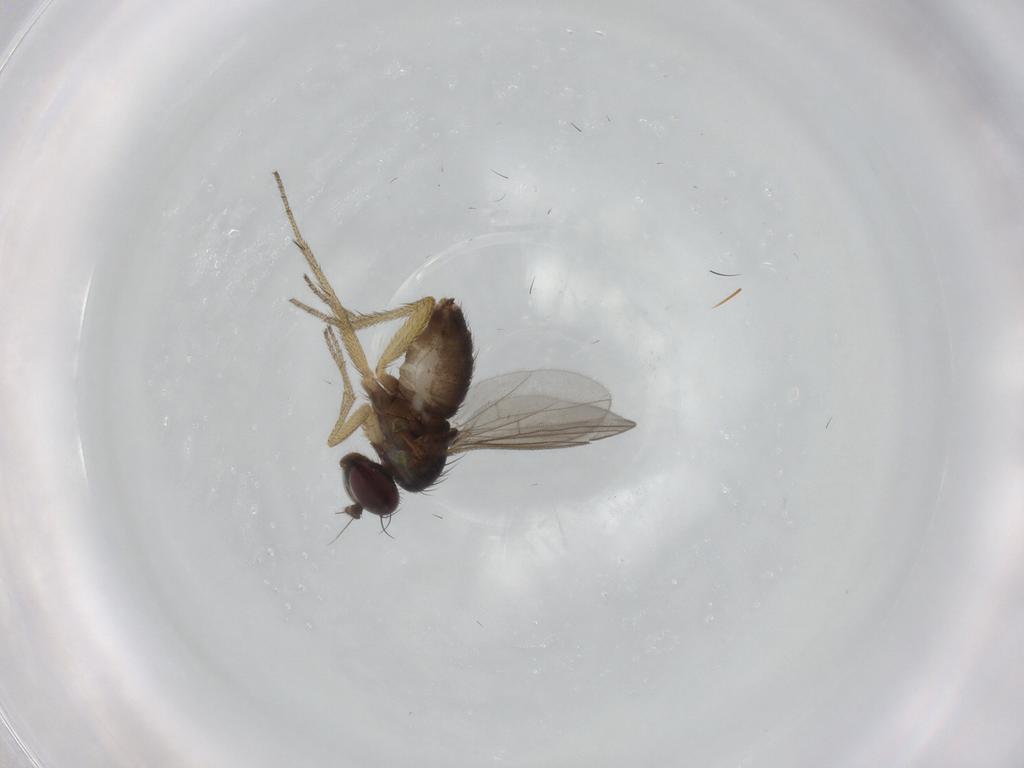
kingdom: Animalia
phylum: Arthropoda
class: Insecta
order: Diptera
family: Dolichopodidae
